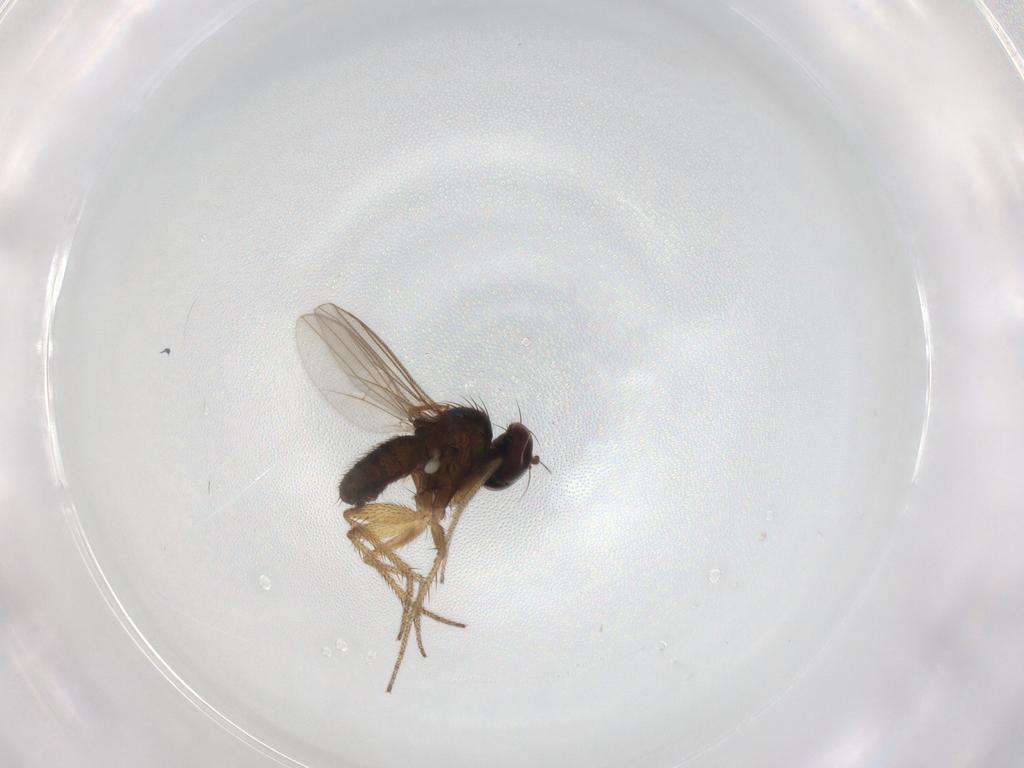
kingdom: Animalia
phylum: Arthropoda
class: Insecta
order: Diptera
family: Dolichopodidae
